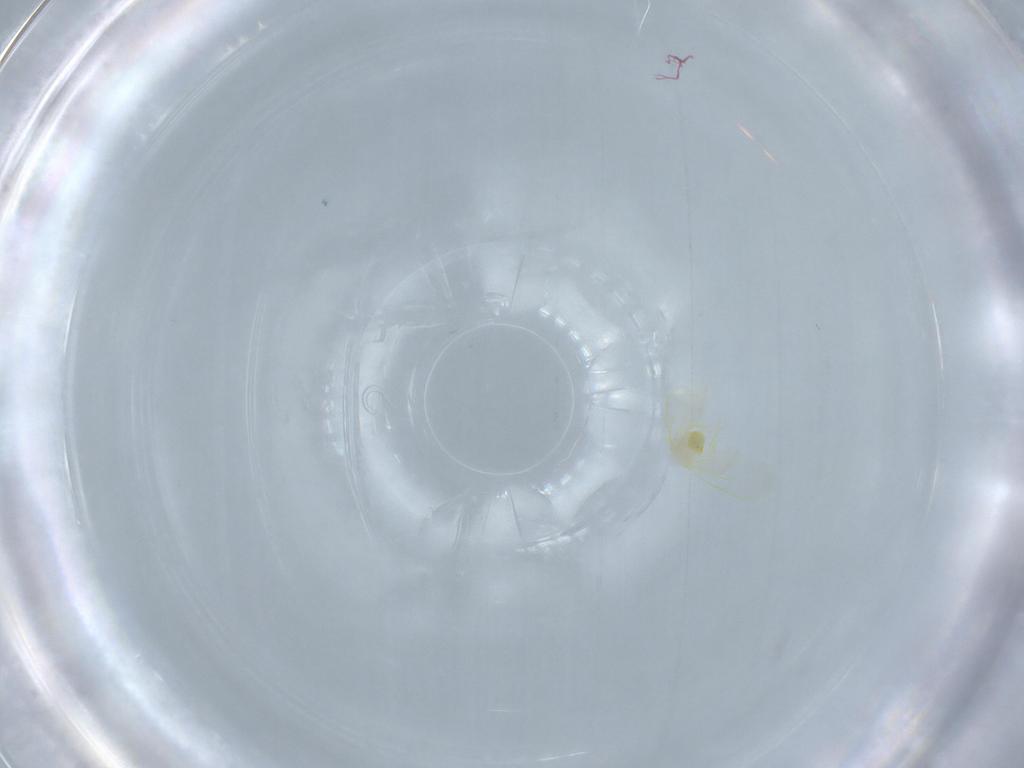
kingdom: Animalia
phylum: Arthropoda
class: Insecta
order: Hemiptera
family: Aleyrodidae
